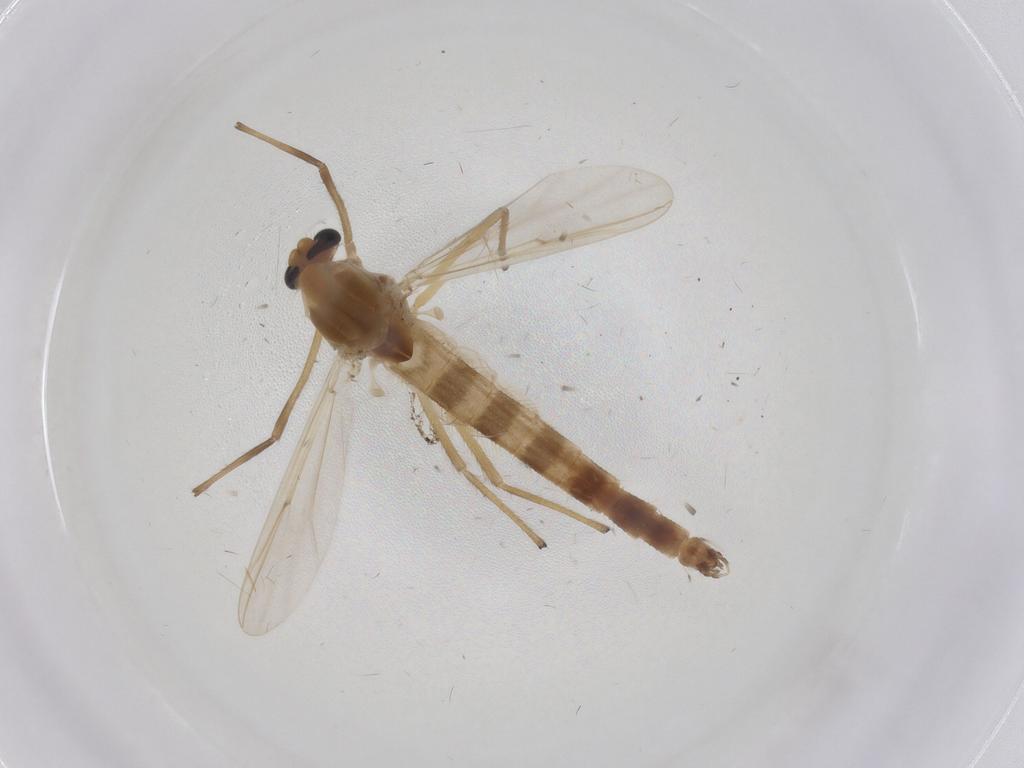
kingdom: Animalia
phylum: Arthropoda
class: Insecta
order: Diptera
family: Chironomidae
